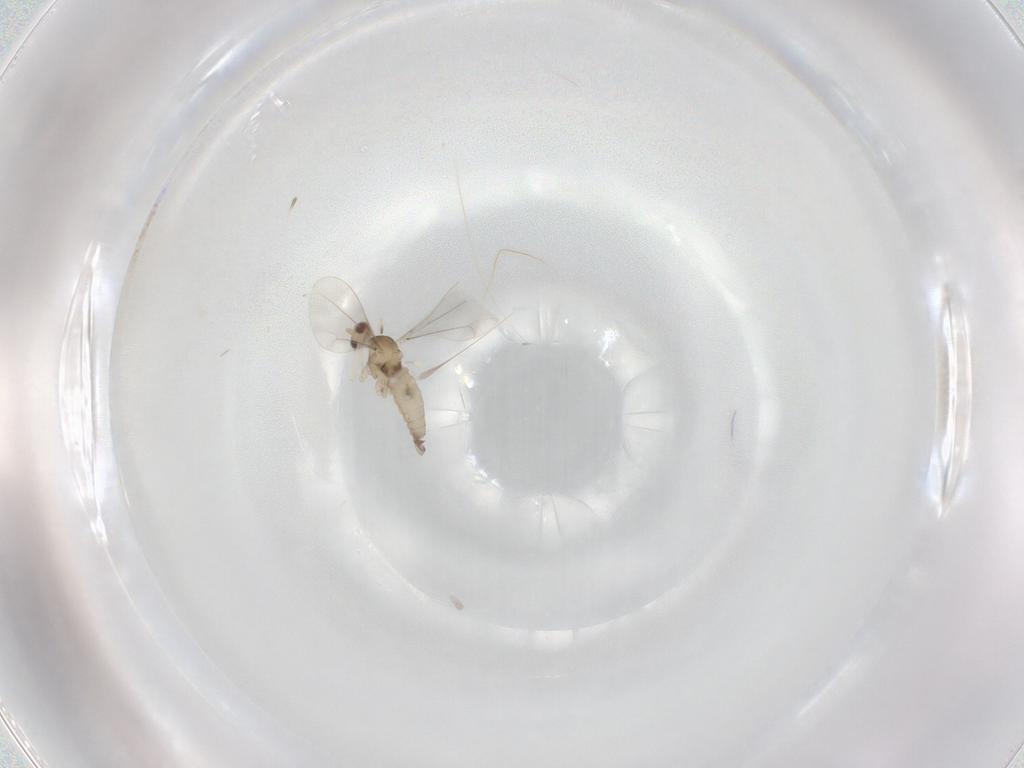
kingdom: Animalia
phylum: Arthropoda
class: Insecta
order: Diptera
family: Cecidomyiidae
